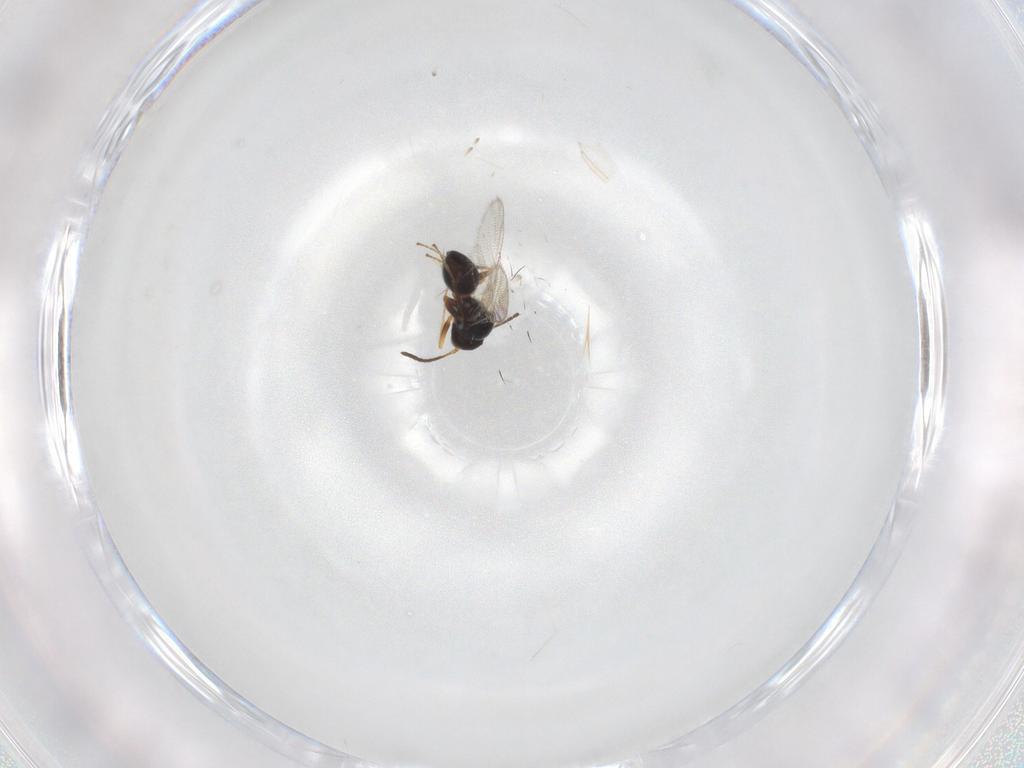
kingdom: Animalia
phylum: Arthropoda
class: Insecta
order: Hymenoptera
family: Figitidae
